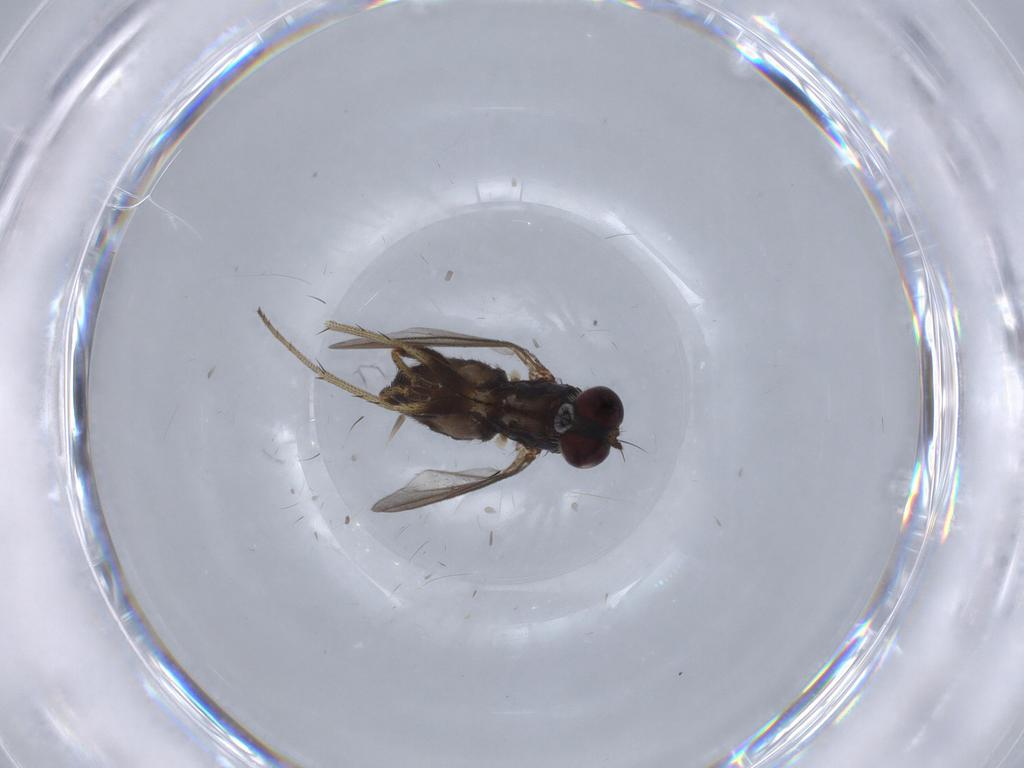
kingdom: Animalia
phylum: Arthropoda
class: Insecta
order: Diptera
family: Dolichopodidae
